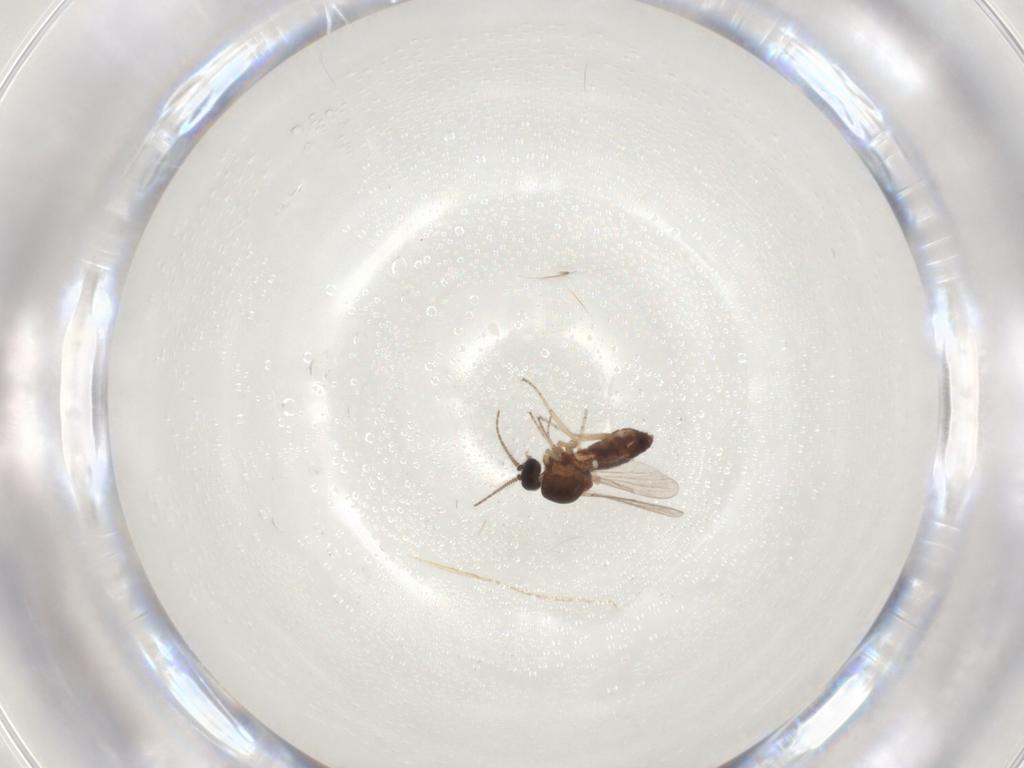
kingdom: Animalia
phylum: Arthropoda
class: Insecta
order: Diptera
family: Ceratopogonidae
